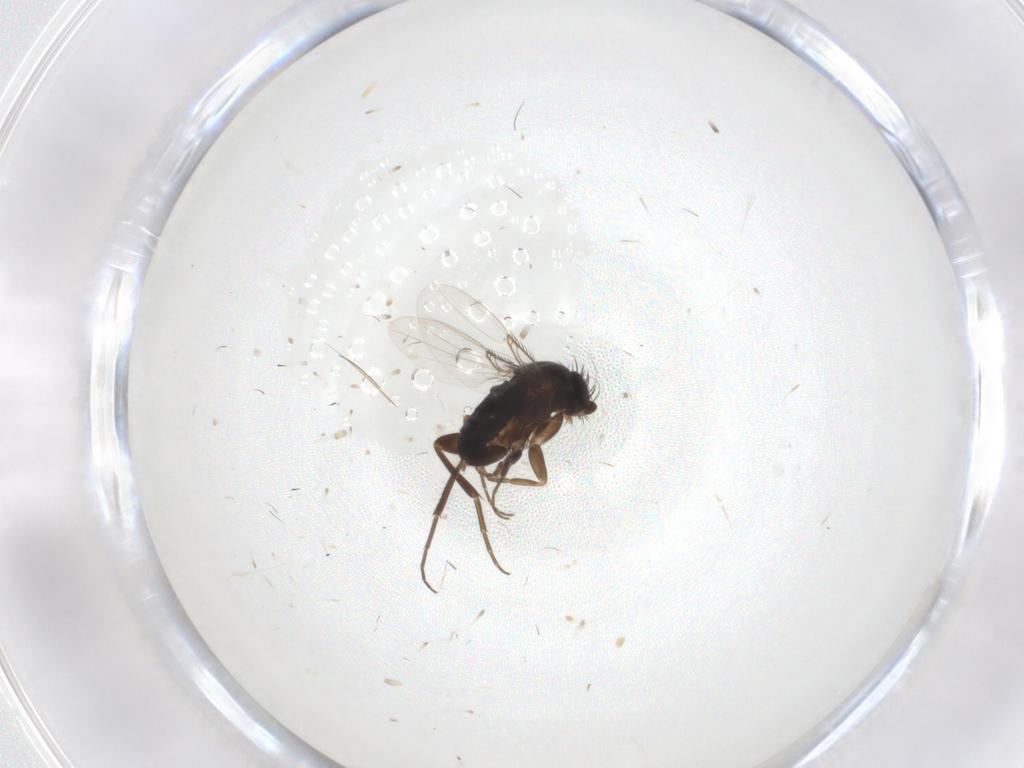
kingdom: Animalia
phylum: Arthropoda
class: Insecta
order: Diptera
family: Phoridae
